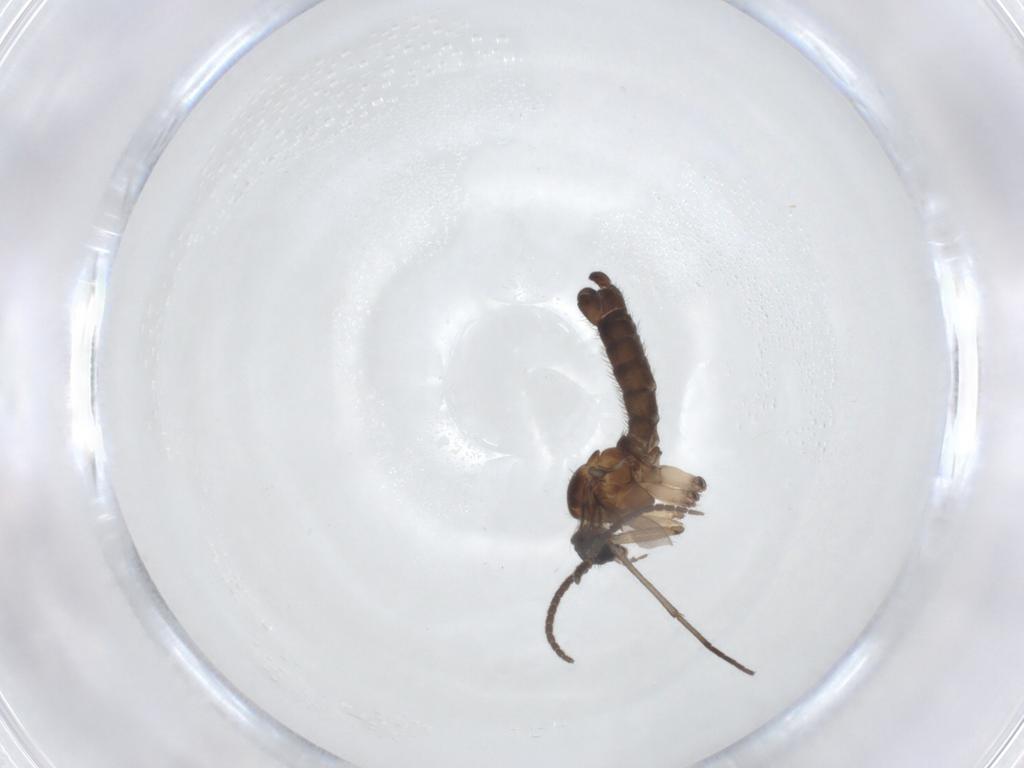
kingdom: Animalia
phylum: Arthropoda
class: Insecta
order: Diptera
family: Sciaridae
